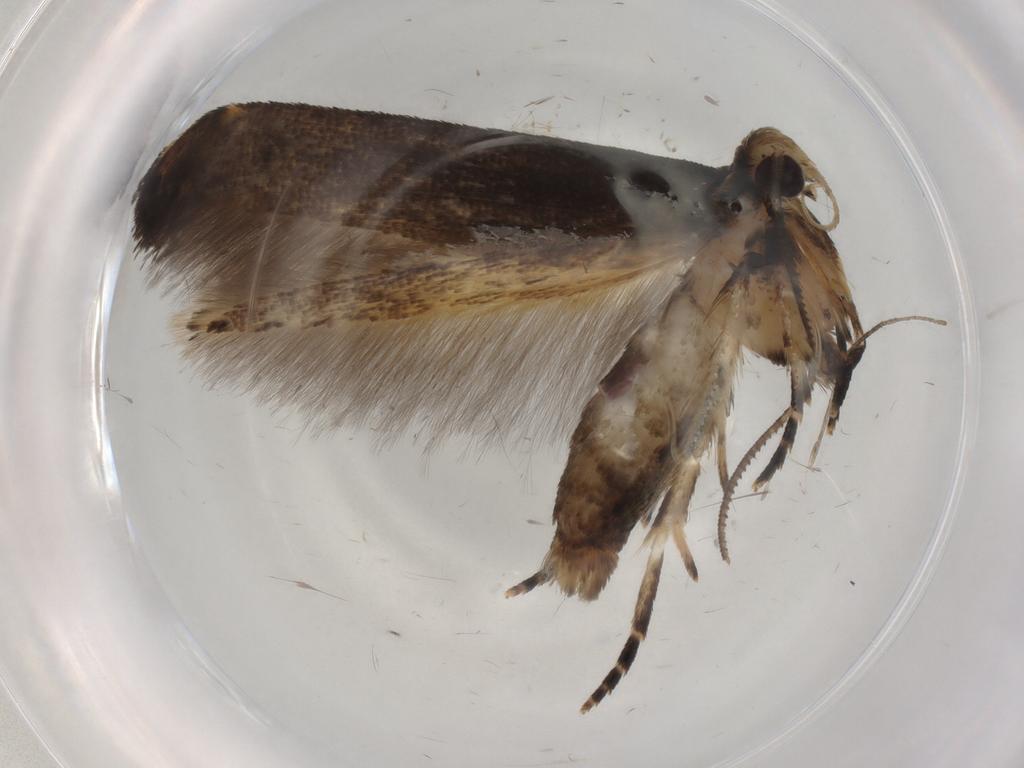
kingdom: Animalia
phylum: Arthropoda
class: Insecta
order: Lepidoptera
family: Cosmopterigidae
